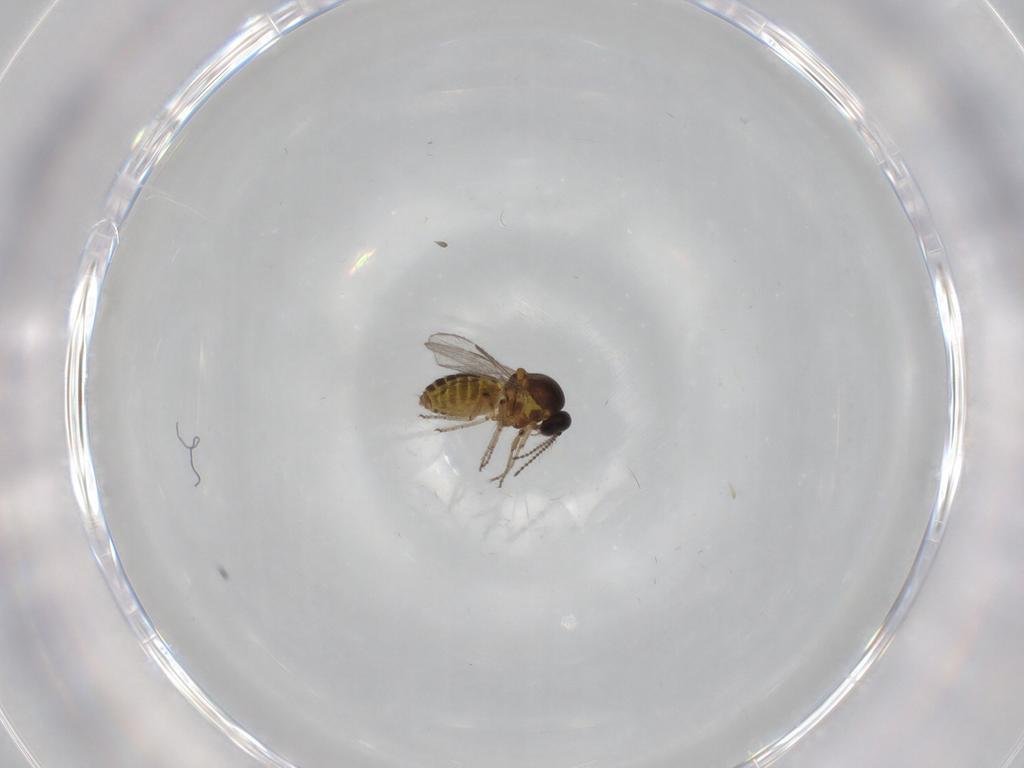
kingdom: Animalia
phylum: Arthropoda
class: Insecta
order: Diptera
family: Ceratopogonidae
